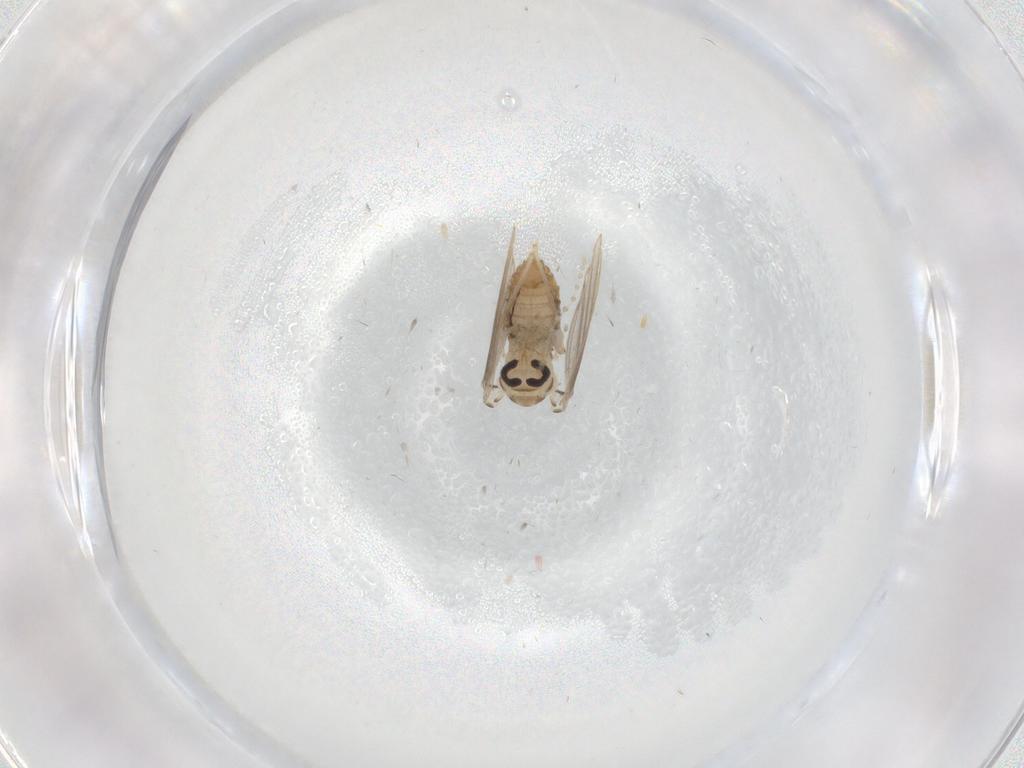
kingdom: Animalia
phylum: Arthropoda
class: Insecta
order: Diptera
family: Psychodidae
